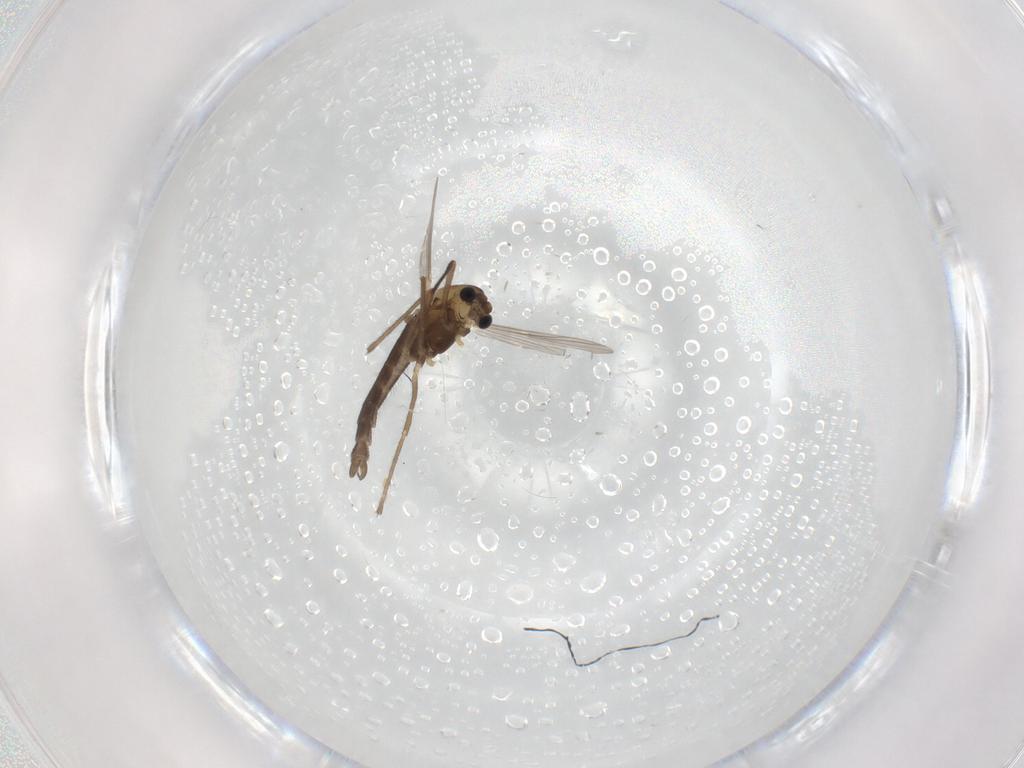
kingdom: Animalia
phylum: Arthropoda
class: Insecta
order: Diptera
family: Chironomidae
